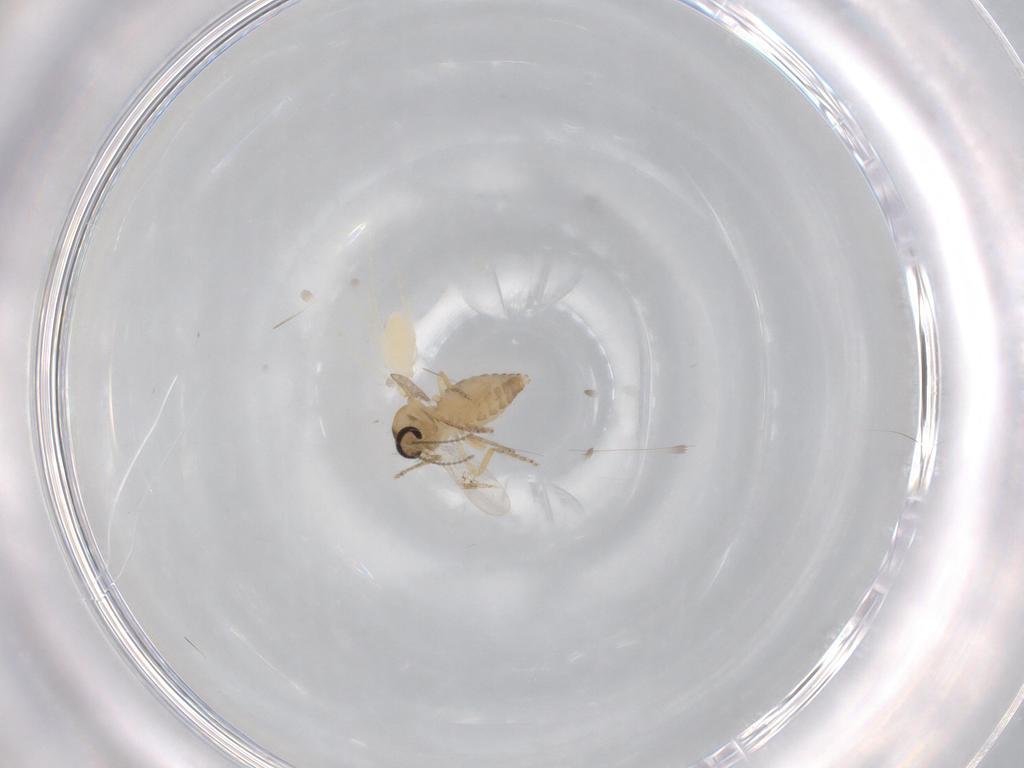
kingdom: Animalia
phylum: Arthropoda
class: Insecta
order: Diptera
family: Ceratopogonidae
